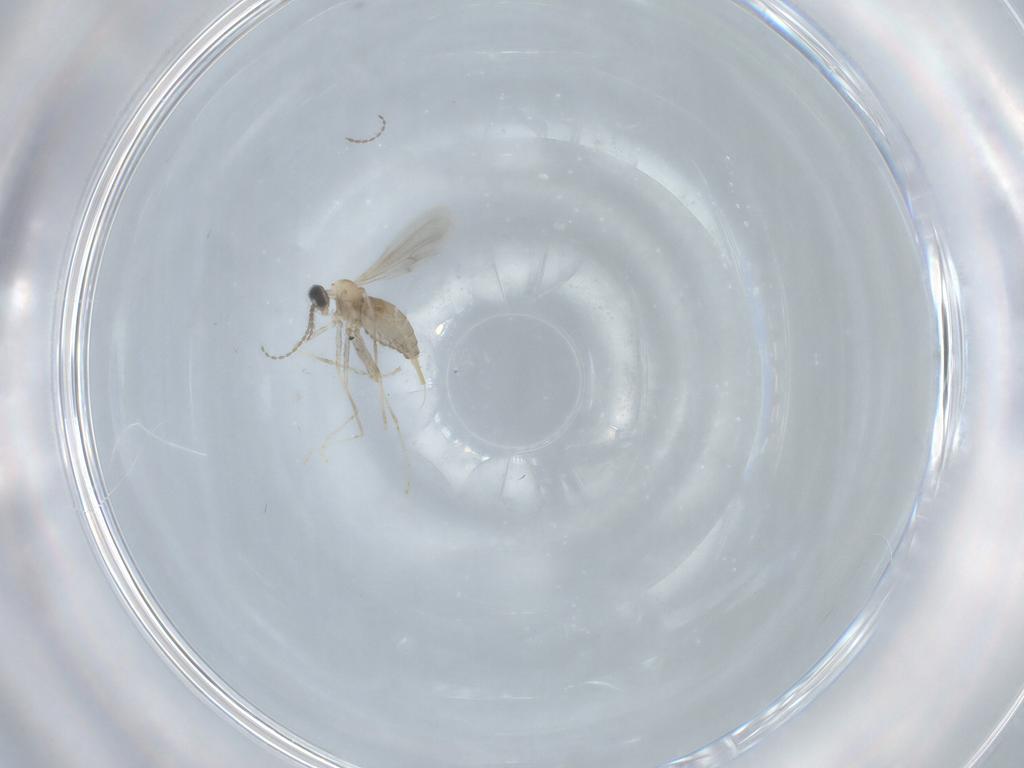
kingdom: Animalia
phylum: Arthropoda
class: Insecta
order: Diptera
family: Cecidomyiidae
